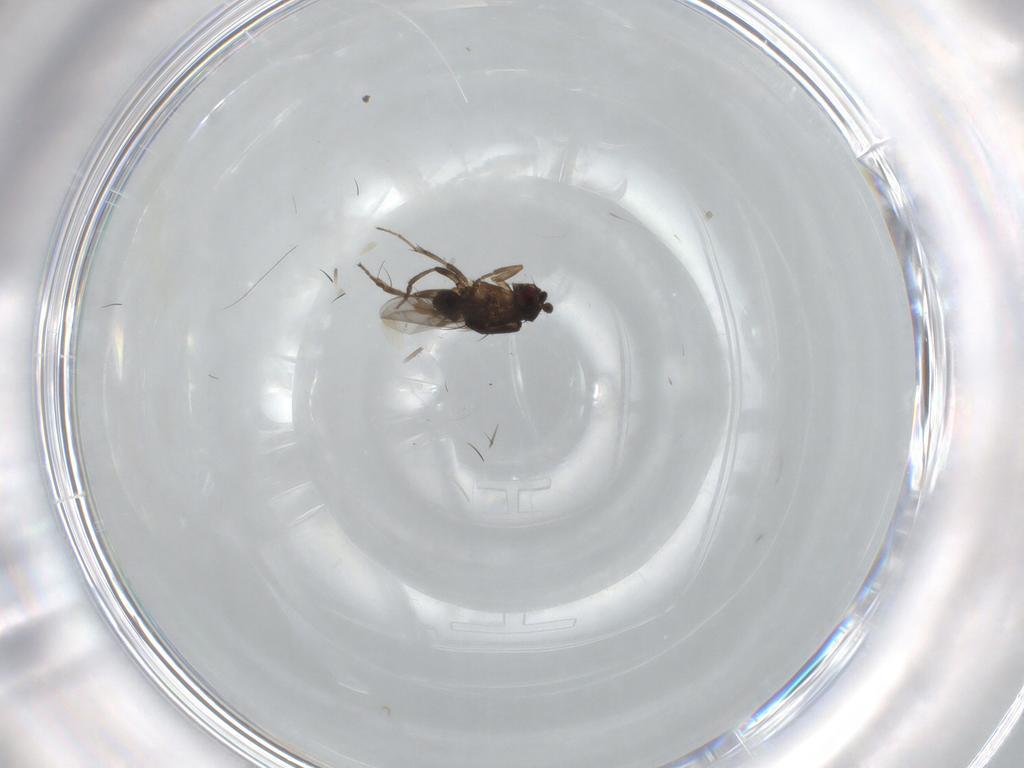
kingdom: Animalia
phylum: Arthropoda
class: Insecta
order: Diptera
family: Sphaeroceridae
